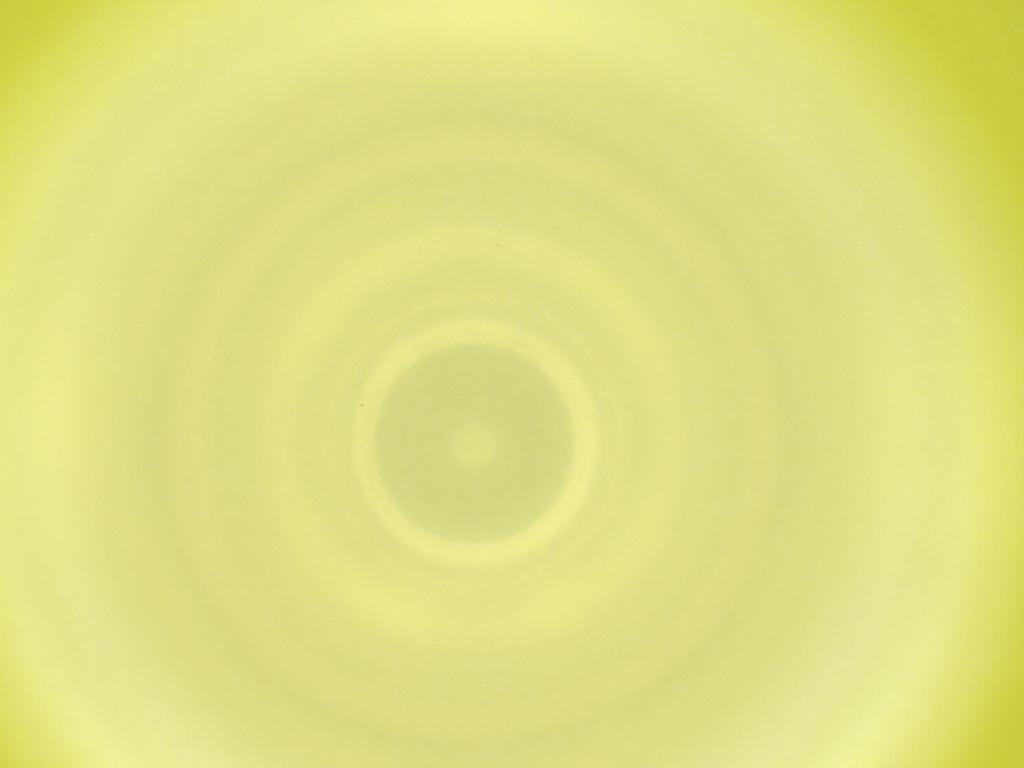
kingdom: Animalia
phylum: Arthropoda
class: Insecta
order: Diptera
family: Cecidomyiidae
